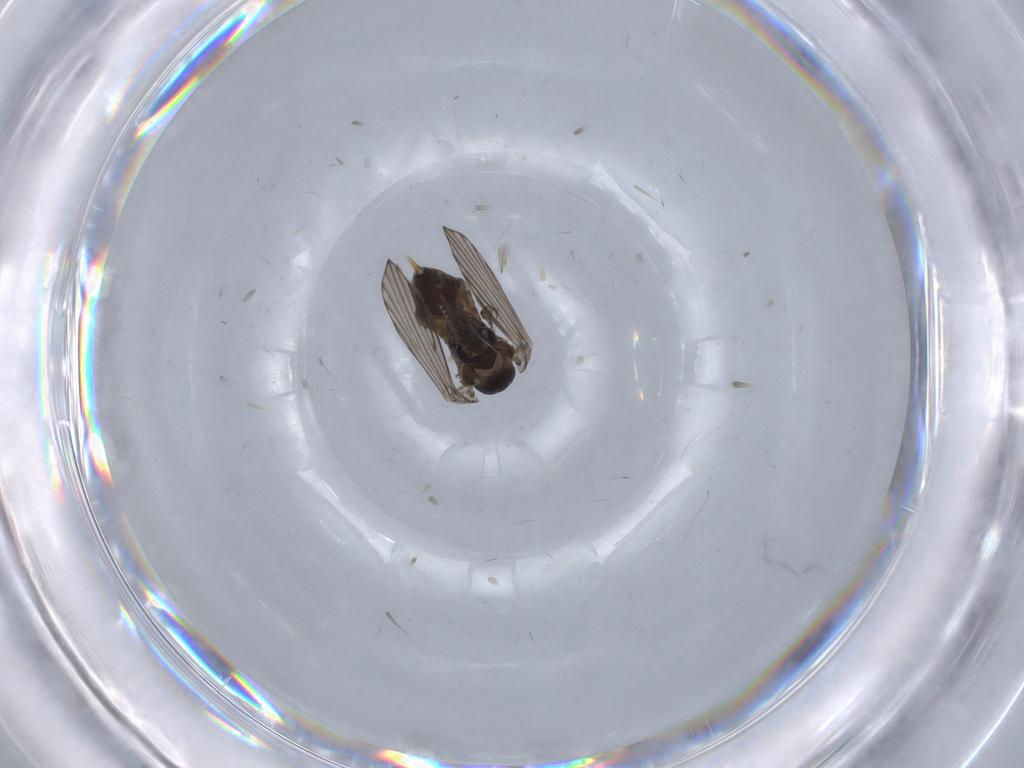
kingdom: Animalia
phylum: Arthropoda
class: Insecta
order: Diptera
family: Psychodidae
